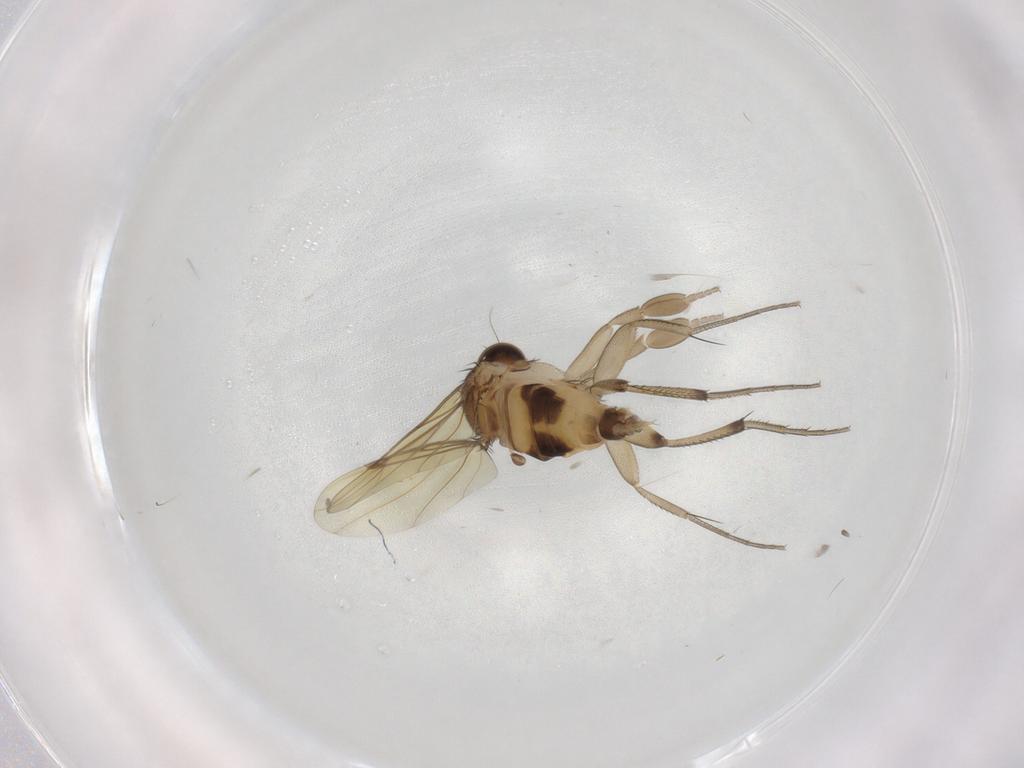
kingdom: Animalia
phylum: Arthropoda
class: Insecta
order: Diptera
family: Phoridae
